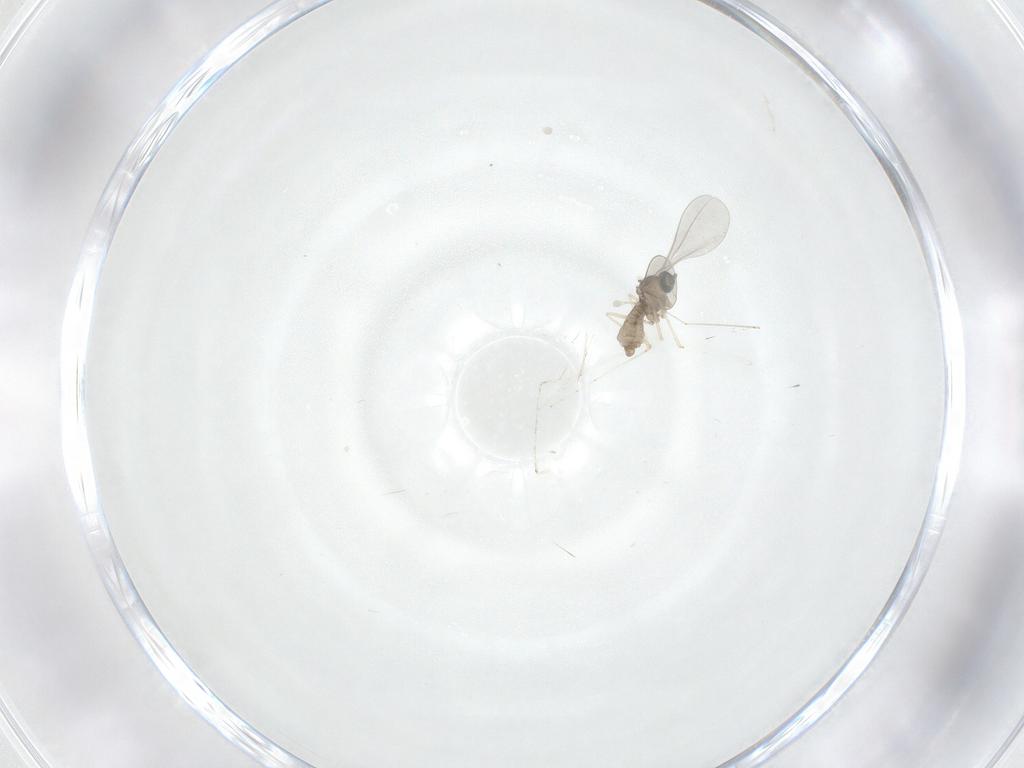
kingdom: Animalia
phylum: Arthropoda
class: Insecta
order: Diptera
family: Cecidomyiidae
